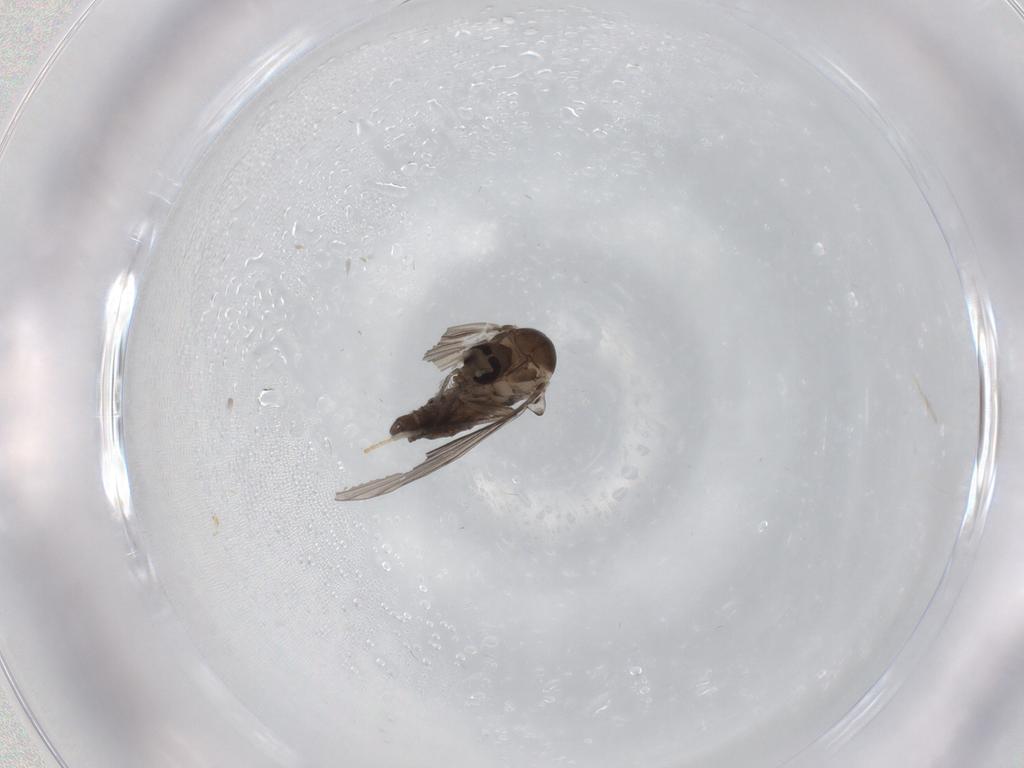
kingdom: Animalia
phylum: Arthropoda
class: Insecta
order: Diptera
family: Psychodidae
